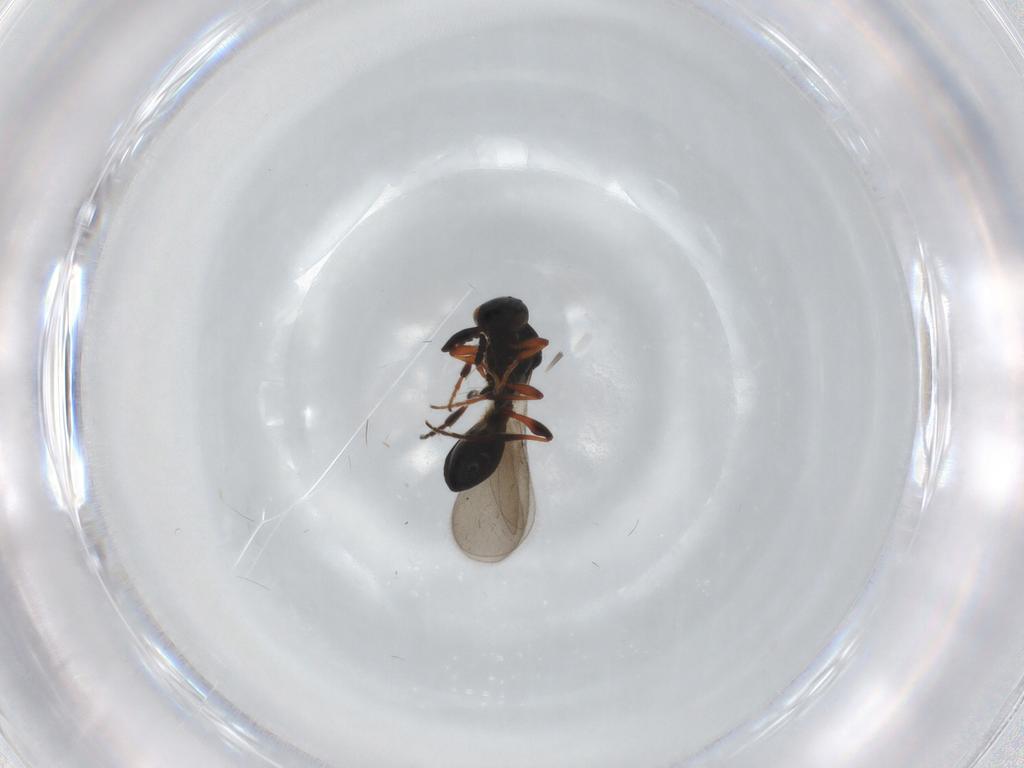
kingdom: Animalia
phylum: Arthropoda
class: Insecta
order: Hymenoptera
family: Platygastridae
